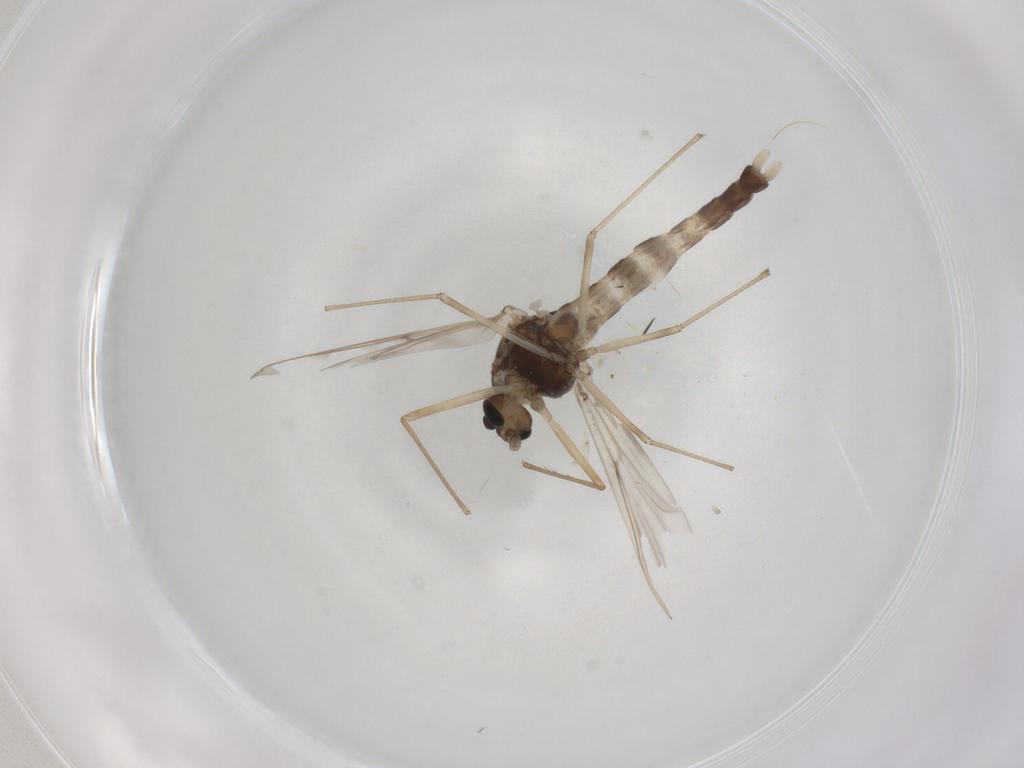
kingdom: Animalia
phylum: Arthropoda
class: Insecta
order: Diptera
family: Chironomidae
